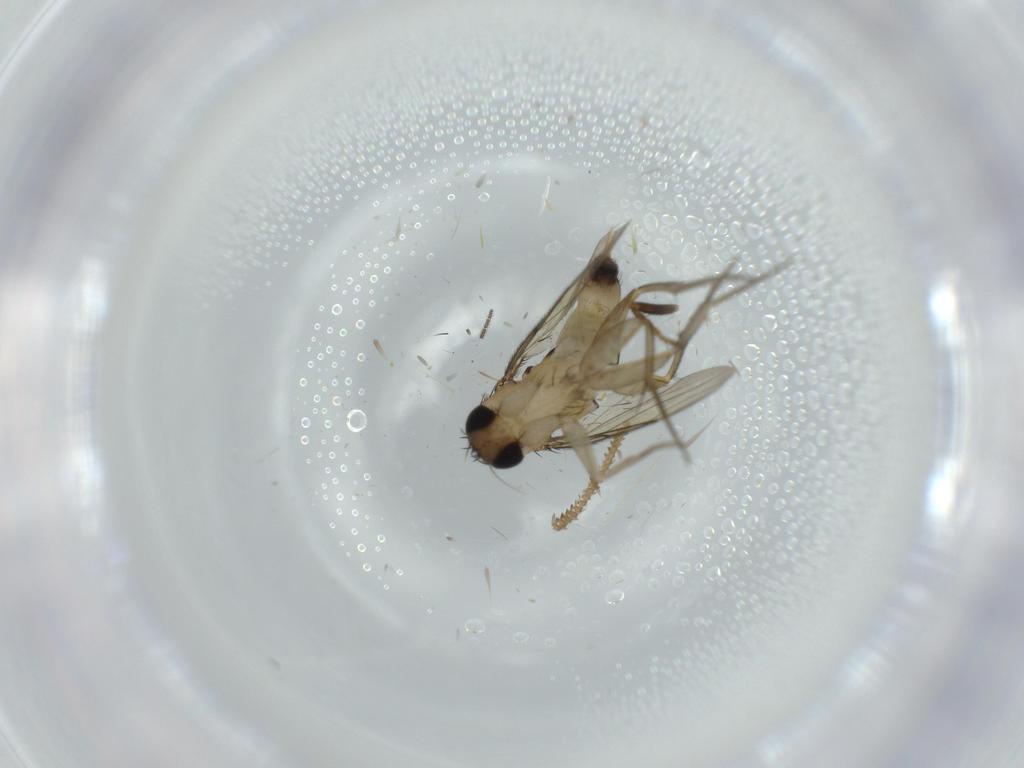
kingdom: Animalia
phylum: Arthropoda
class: Insecta
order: Diptera
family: Sphaeroceridae
